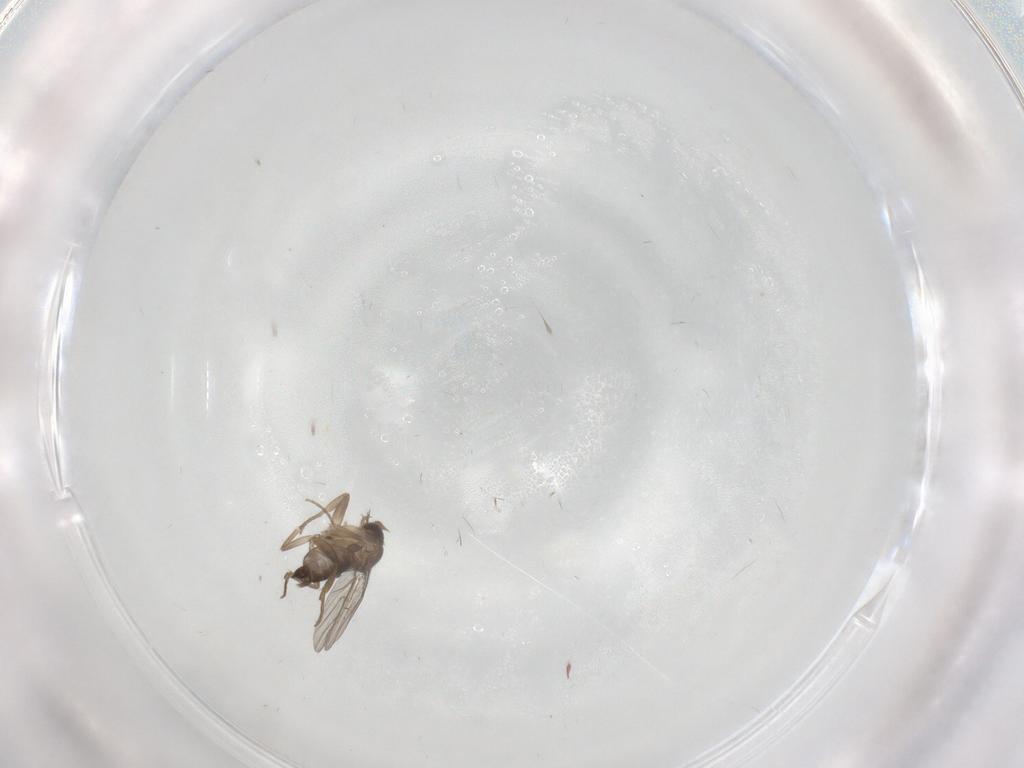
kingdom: Animalia
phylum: Arthropoda
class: Insecta
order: Diptera
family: Phoridae
